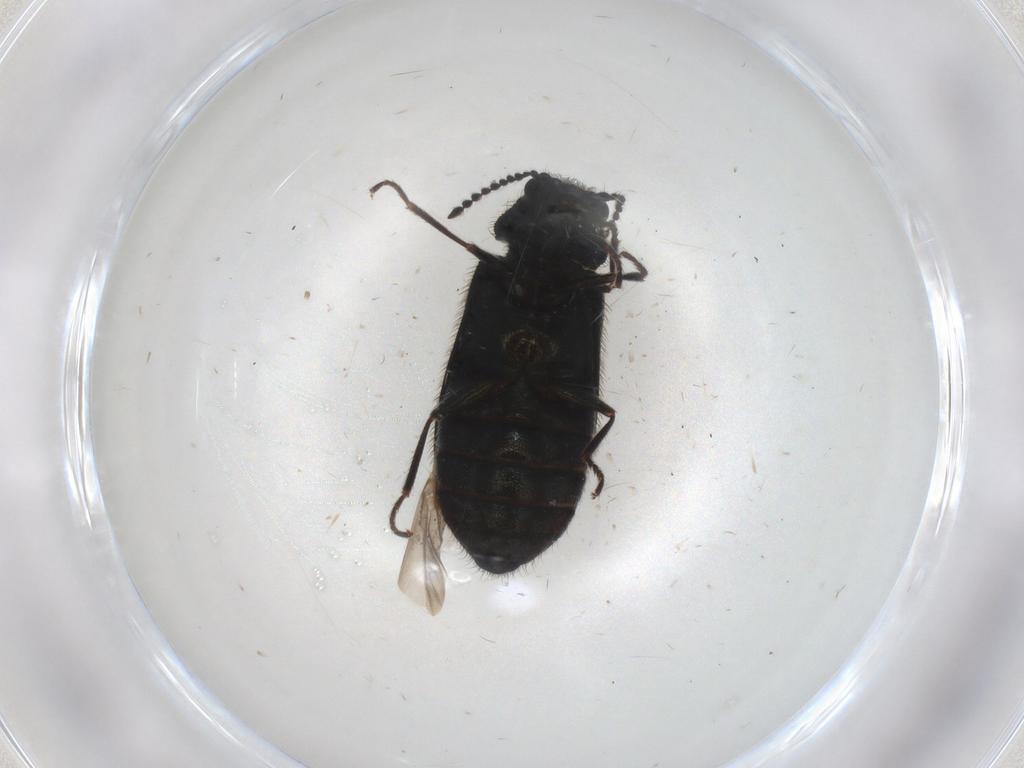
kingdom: Animalia
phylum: Arthropoda
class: Insecta
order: Coleoptera
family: Melyridae
